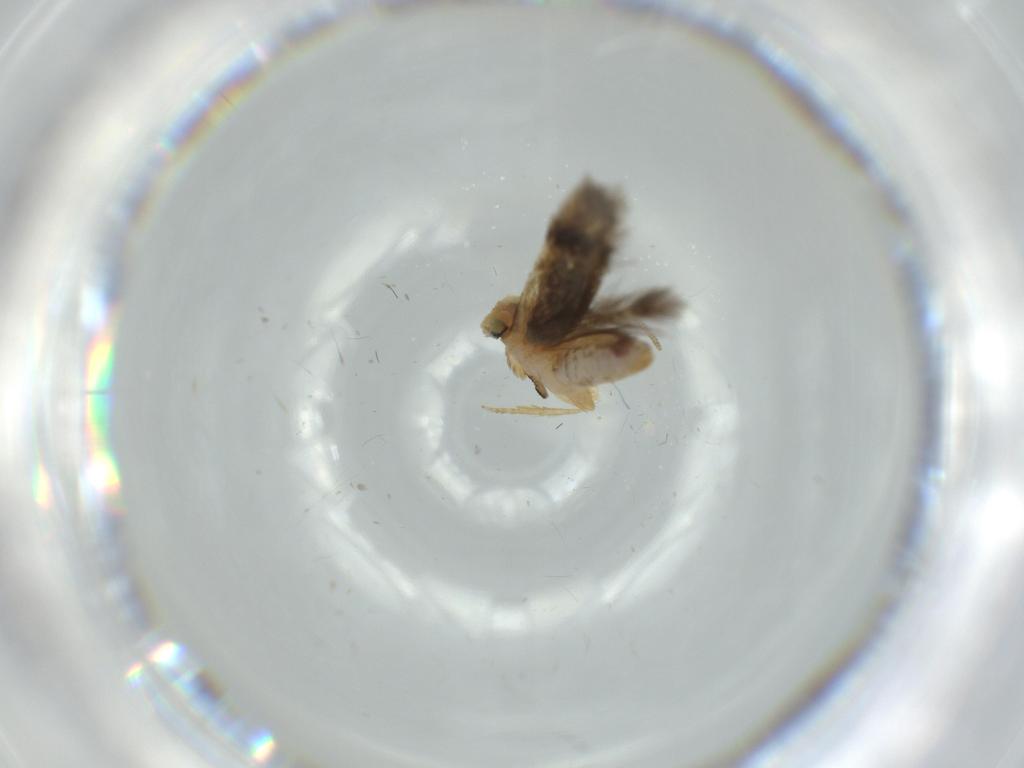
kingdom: Animalia
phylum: Arthropoda
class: Insecta
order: Lepidoptera
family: Nepticulidae
